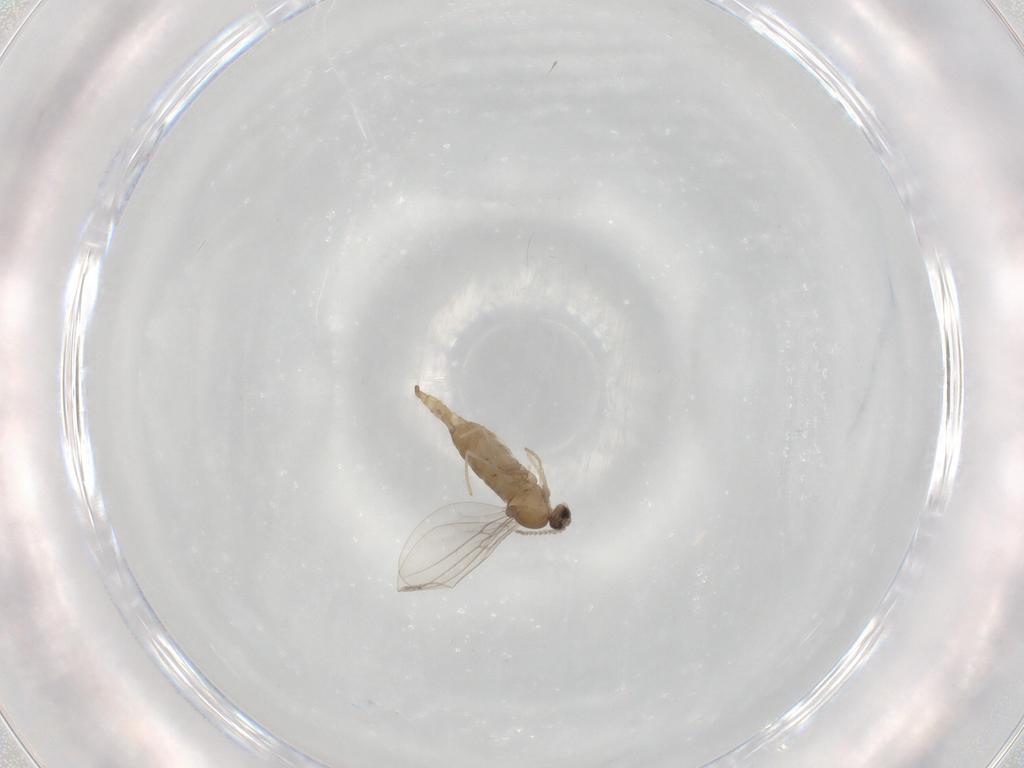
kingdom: Animalia
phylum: Arthropoda
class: Insecta
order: Diptera
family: Cecidomyiidae
